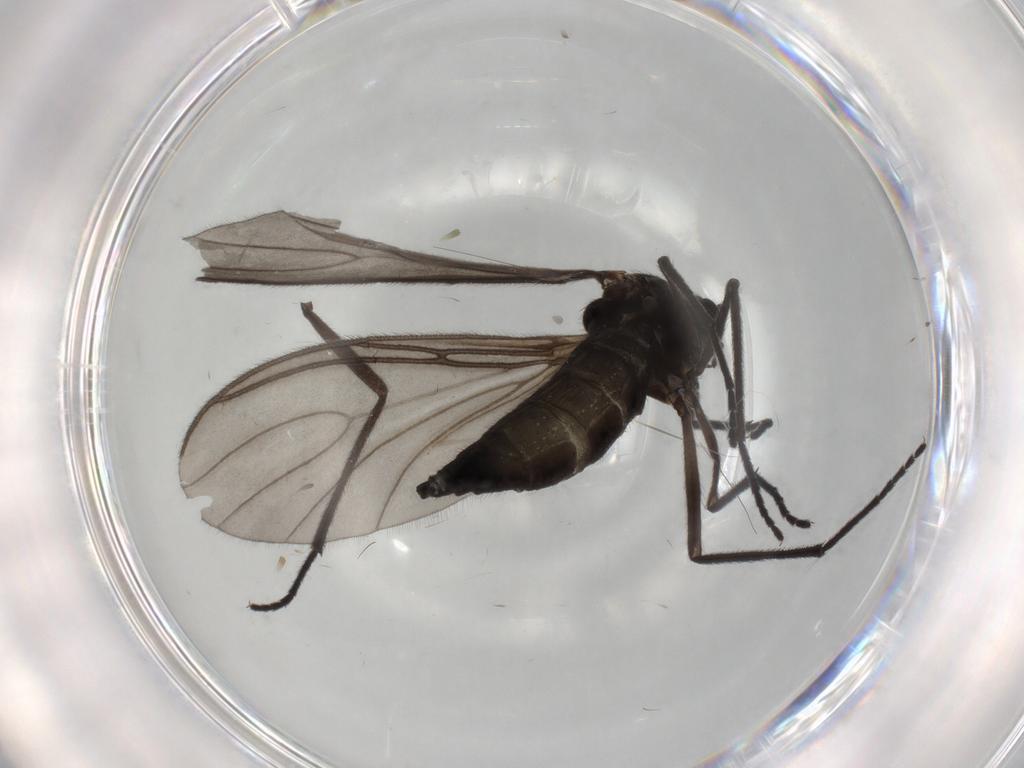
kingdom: Animalia
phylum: Arthropoda
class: Insecta
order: Diptera
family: Sciaridae
